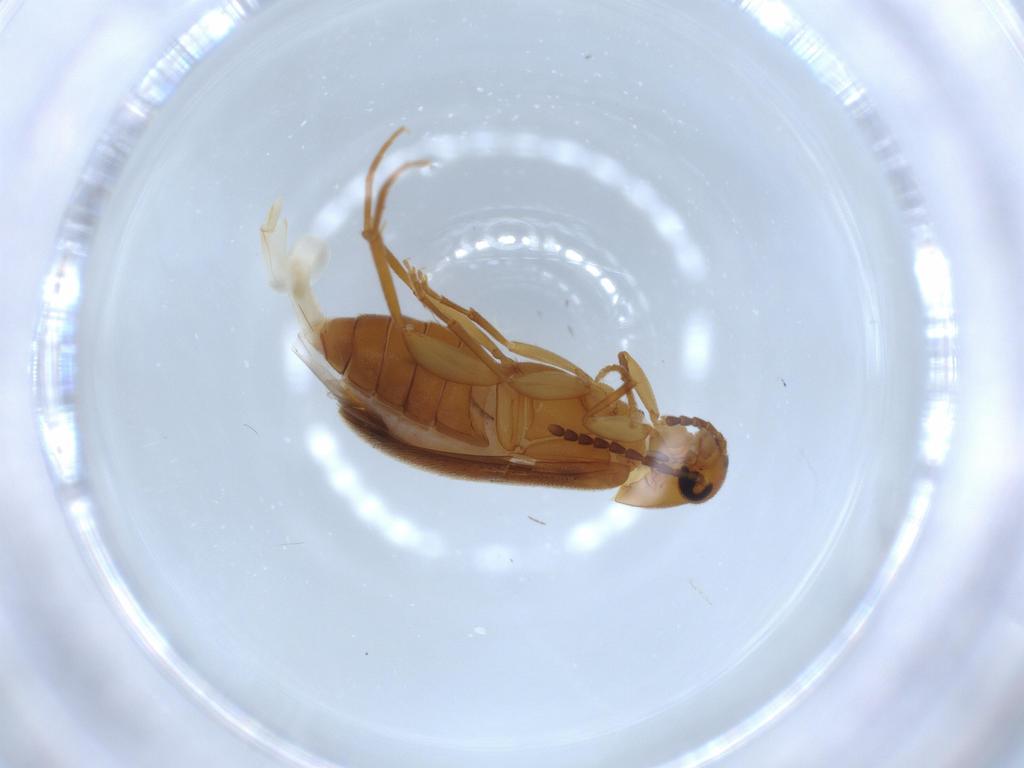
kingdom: Animalia
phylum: Arthropoda
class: Insecta
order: Coleoptera
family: Scraptiidae
